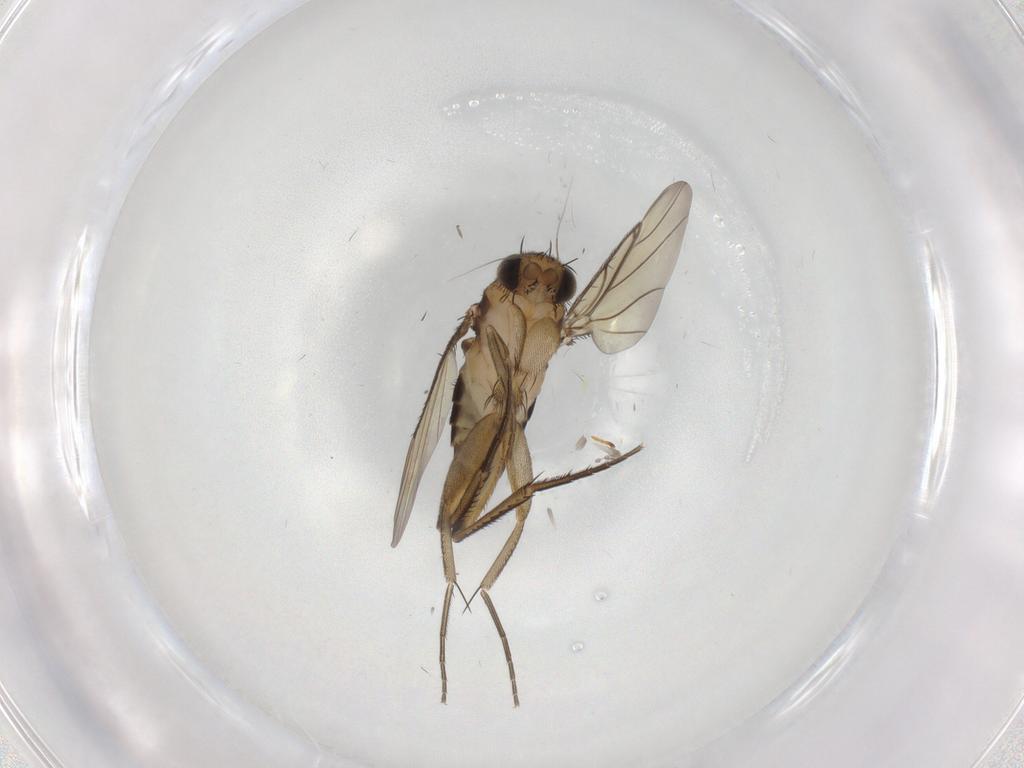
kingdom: Animalia
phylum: Arthropoda
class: Insecta
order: Diptera
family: Phoridae
